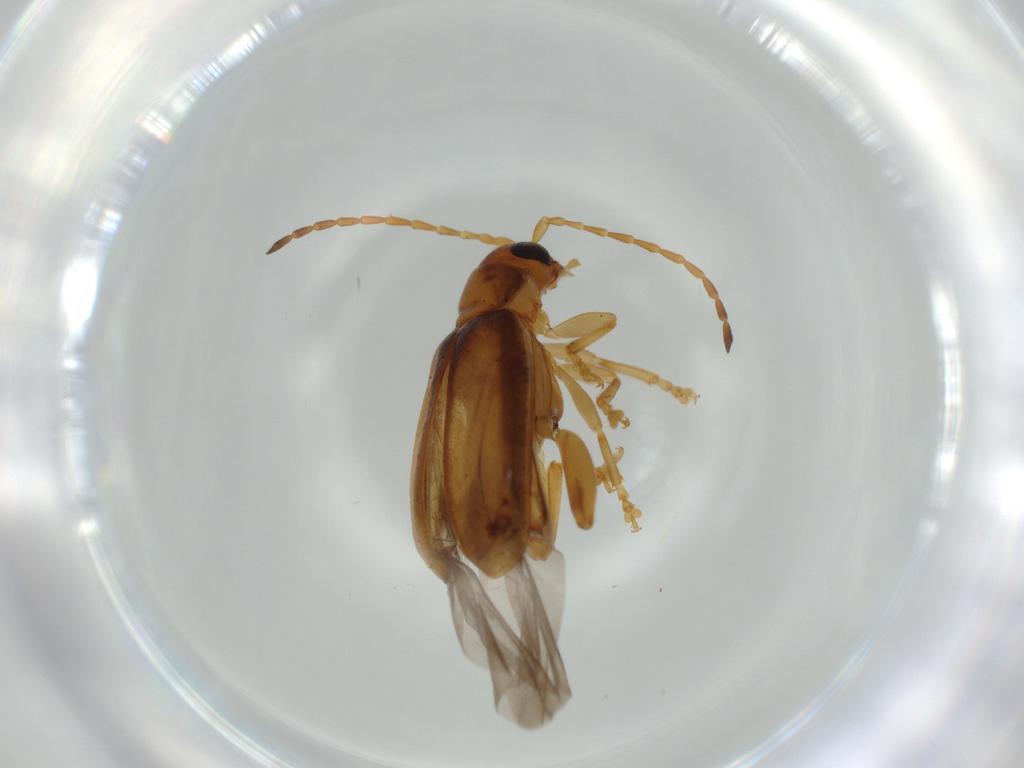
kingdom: Animalia
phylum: Arthropoda
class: Insecta
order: Coleoptera
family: Chrysomelidae
